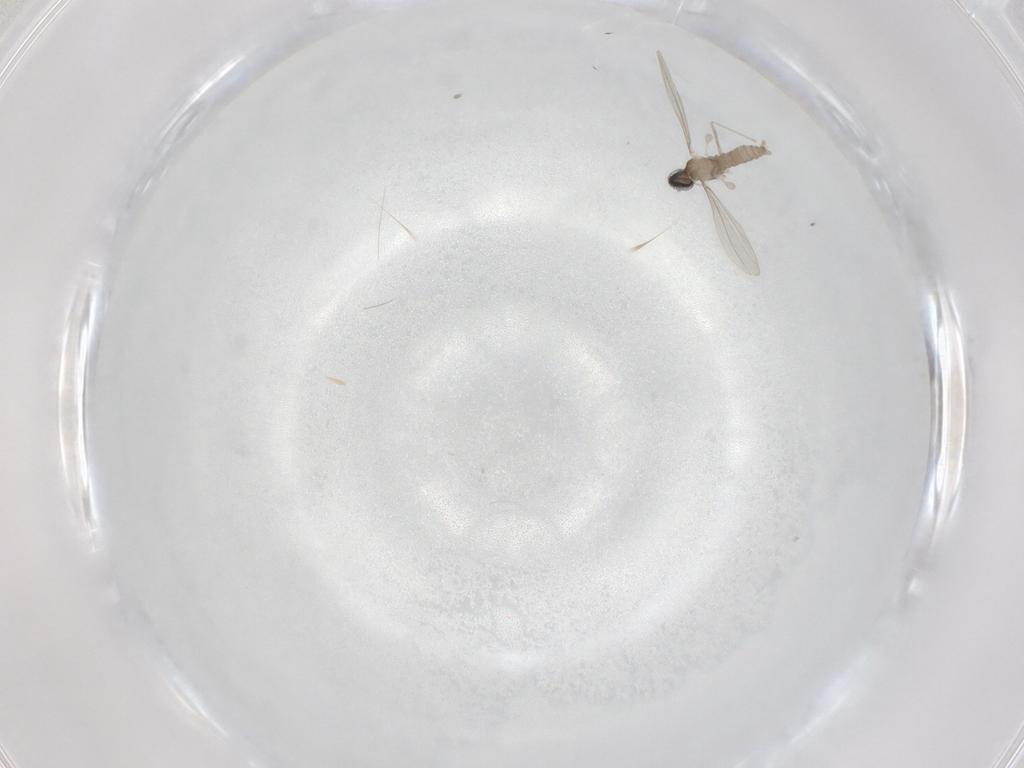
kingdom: Animalia
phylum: Arthropoda
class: Insecta
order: Diptera
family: Cecidomyiidae
